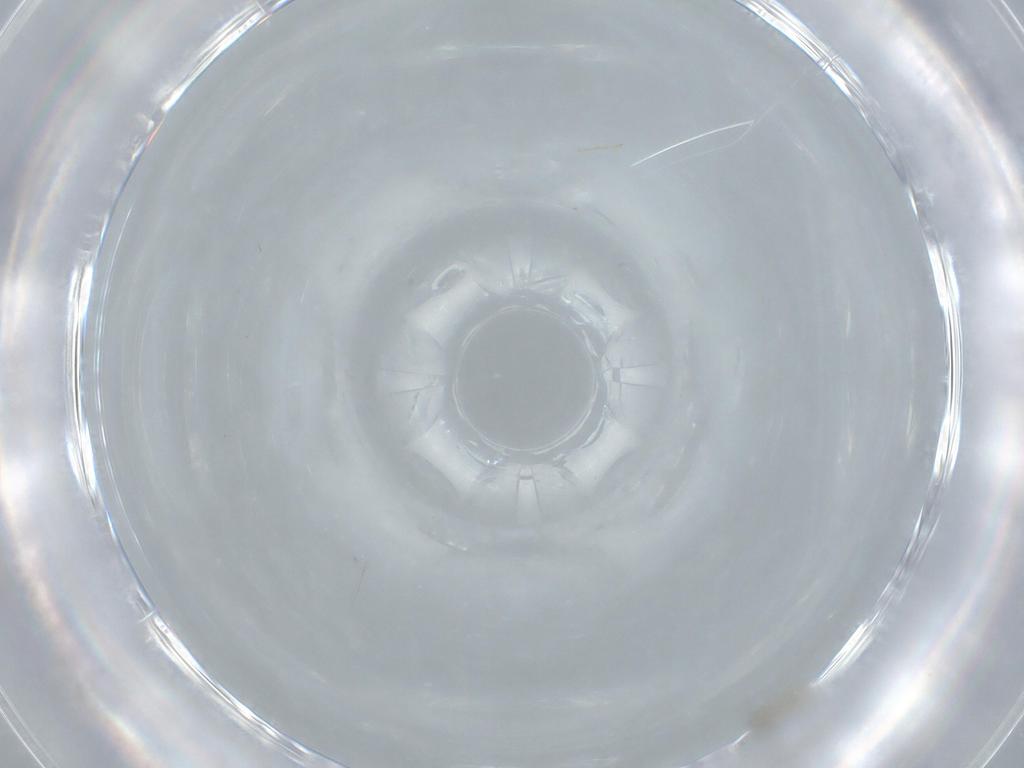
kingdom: Animalia
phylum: Arthropoda
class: Insecta
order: Diptera
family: Cecidomyiidae
